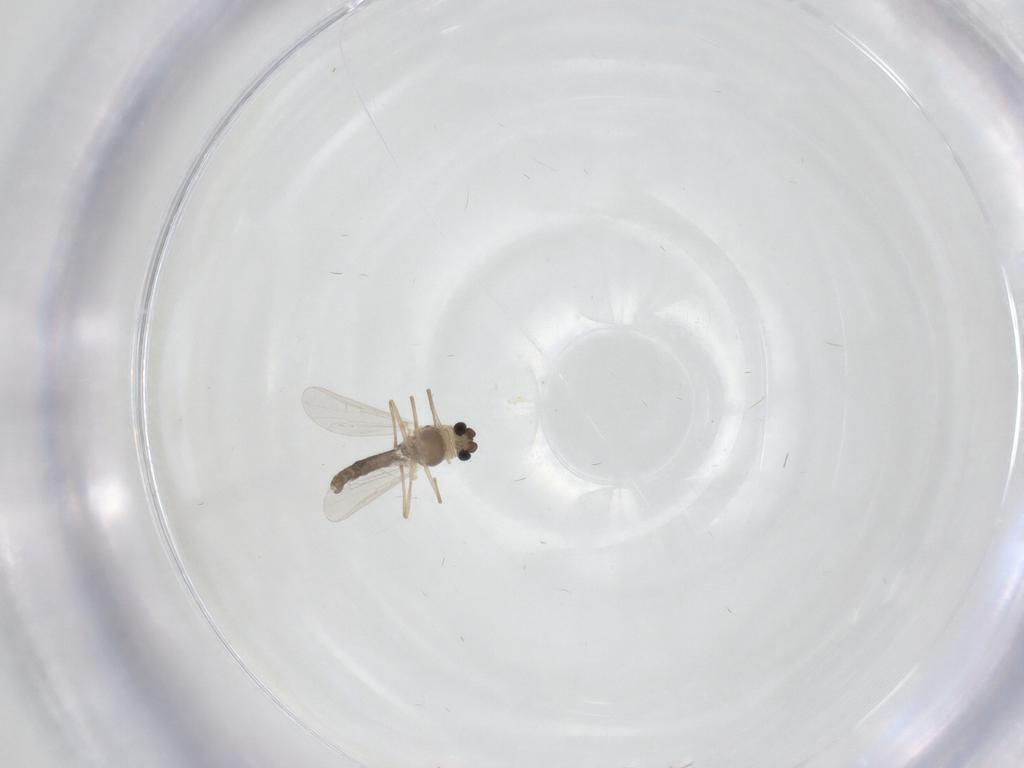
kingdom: Animalia
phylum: Arthropoda
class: Insecta
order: Diptera
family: Chironomidae
